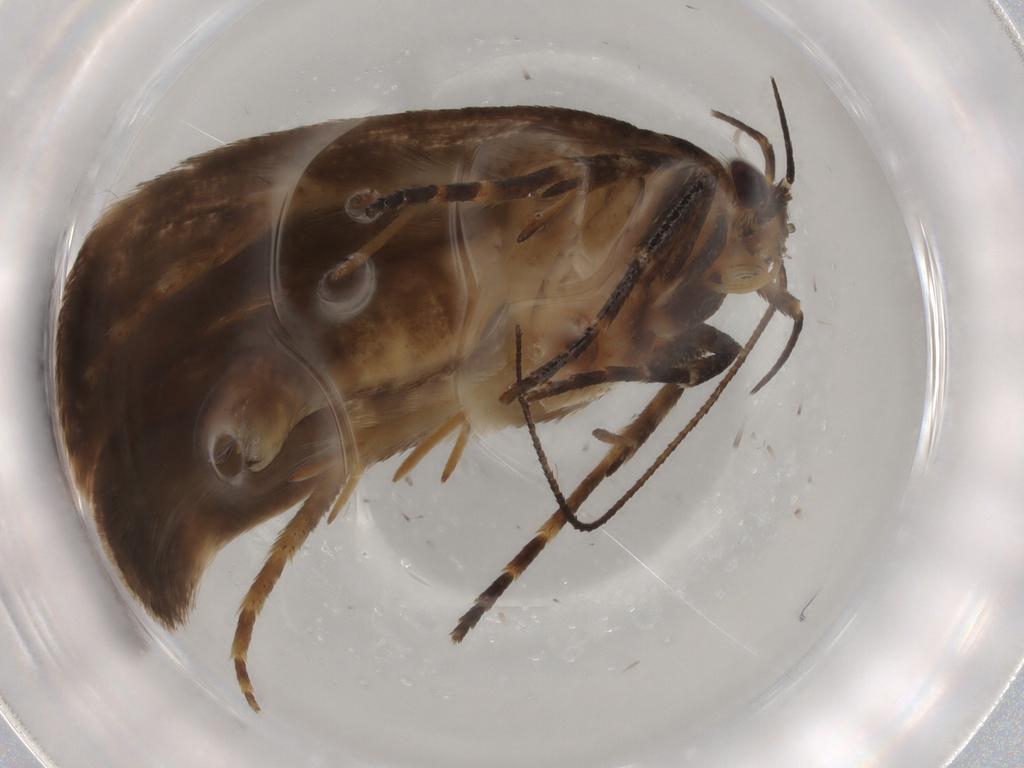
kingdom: Animalia
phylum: Arthropoda
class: Insecta
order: Lepidoptera
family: Gelechiidae
